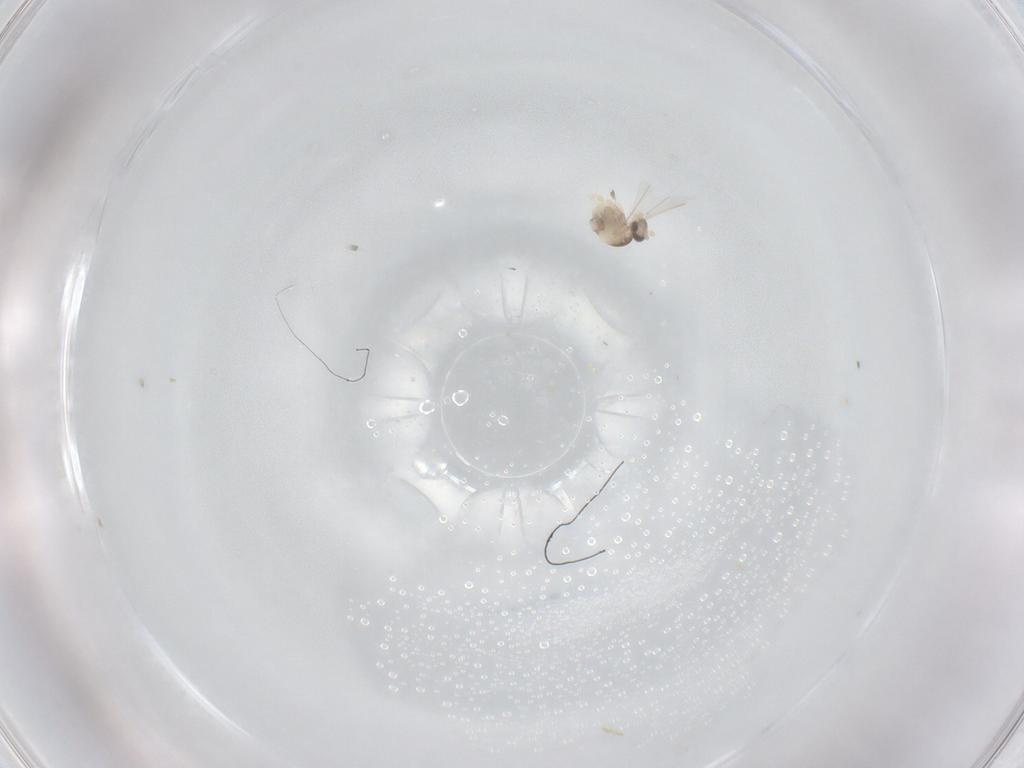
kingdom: Animalia
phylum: Arthropoda
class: Insecta
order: Diptera
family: Cecidomyiidae
